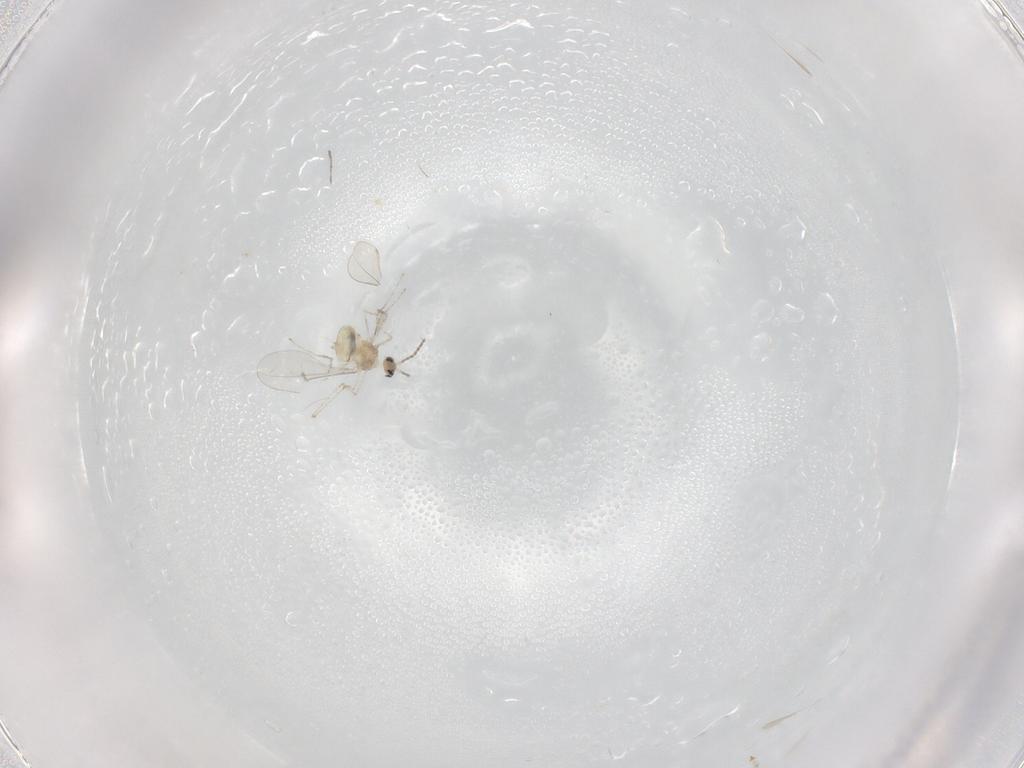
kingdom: Animalia
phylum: Arthropoda
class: Insecta
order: Diptera
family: Cecidomyiidae
